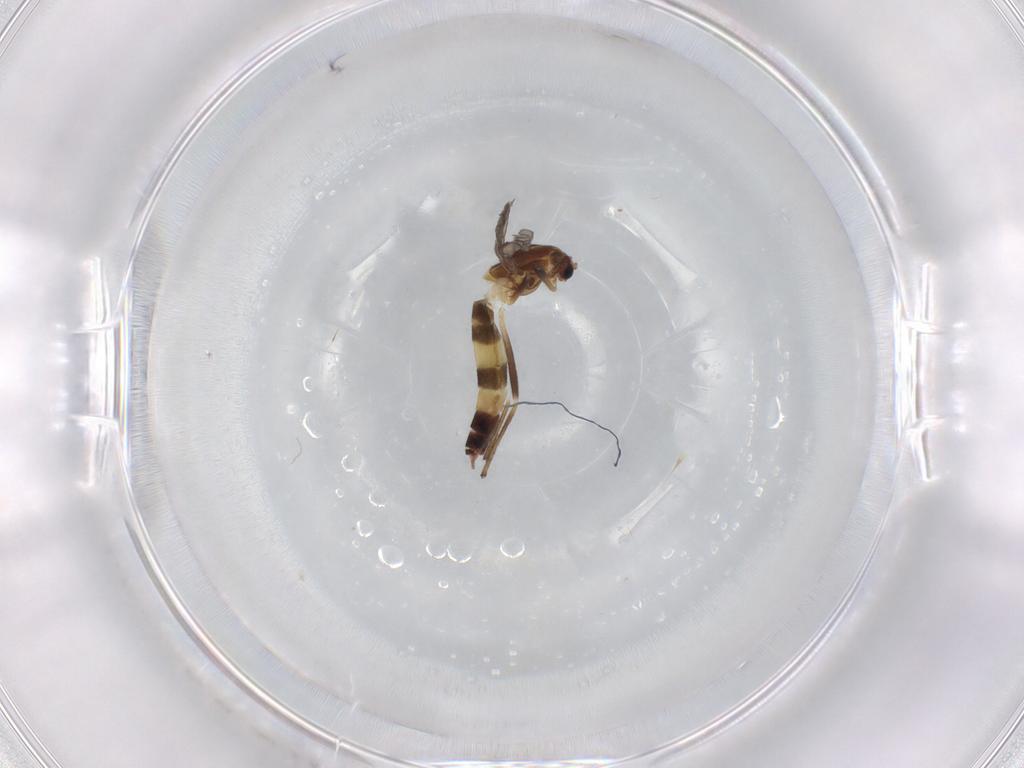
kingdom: Animalia
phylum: Arthropoda
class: Insecta
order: Diptera
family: Chironomidae
